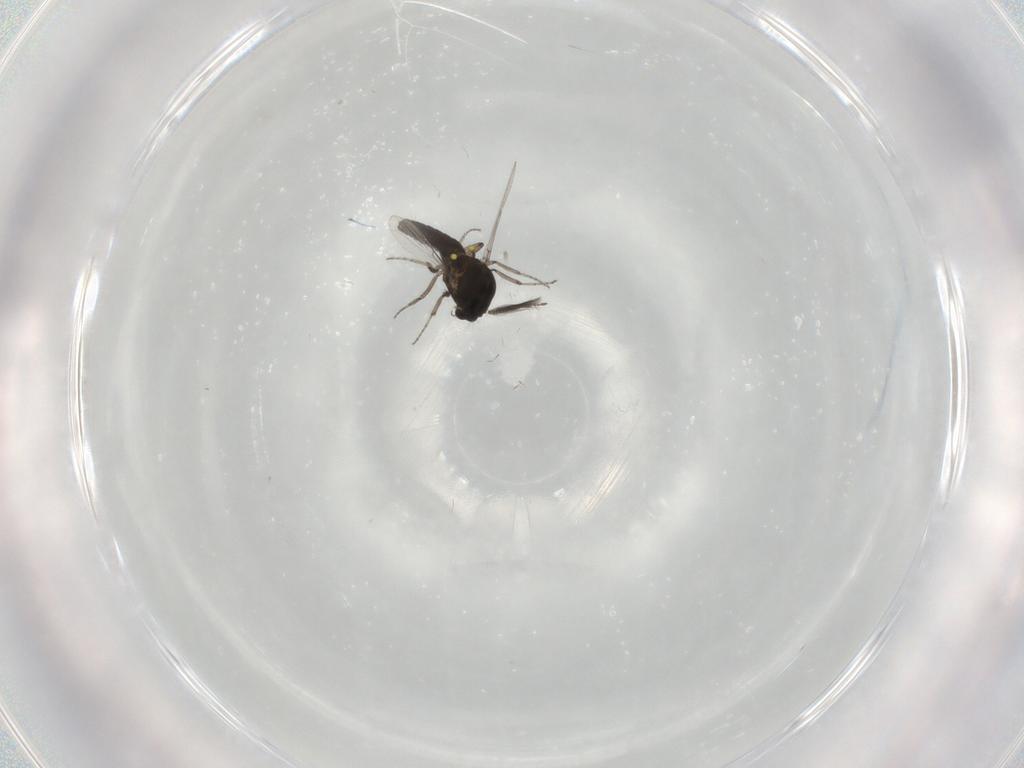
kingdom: Animalia
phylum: Arthropoda
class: Insecta
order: Diptera
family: Ceratopogonidae
